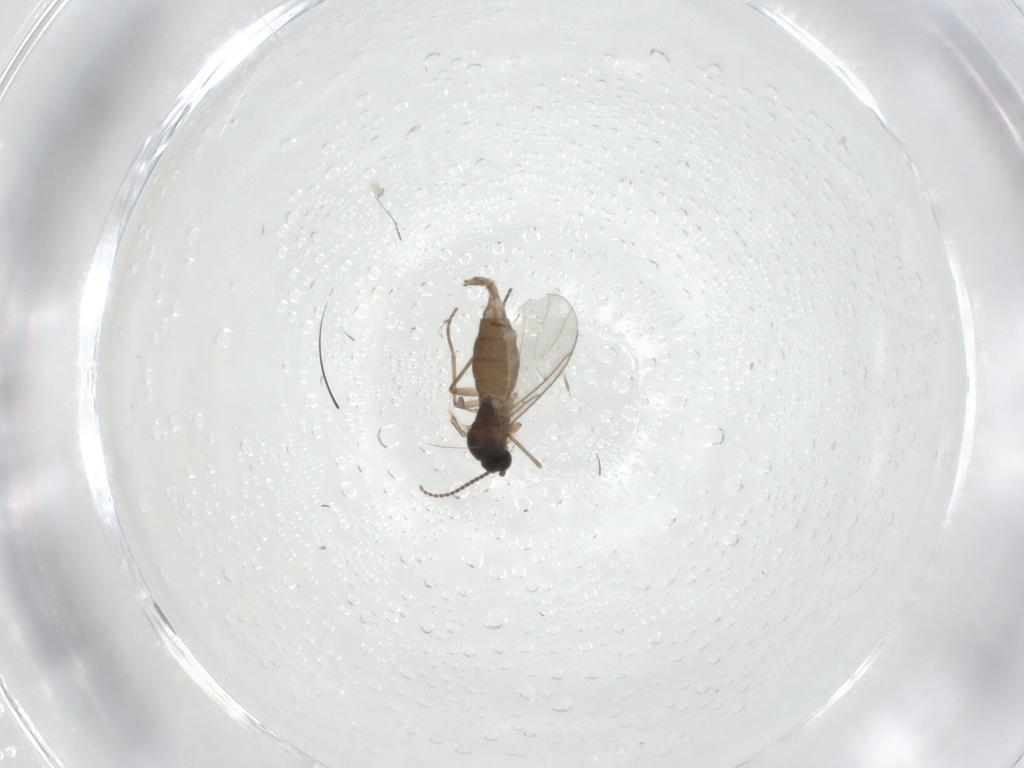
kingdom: Animalia
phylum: Arthropoda
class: Insecta
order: Diptera
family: Sciaridae
